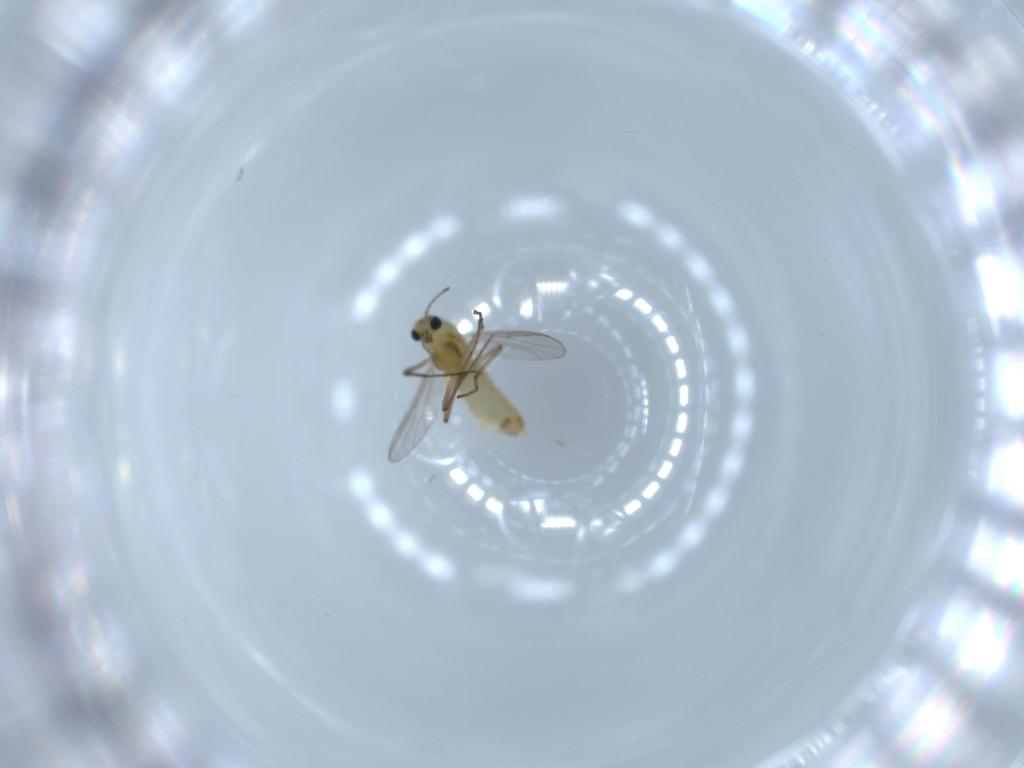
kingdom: Animalia
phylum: Arthropoda
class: Insecta
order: Diptera
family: Chironomidae
